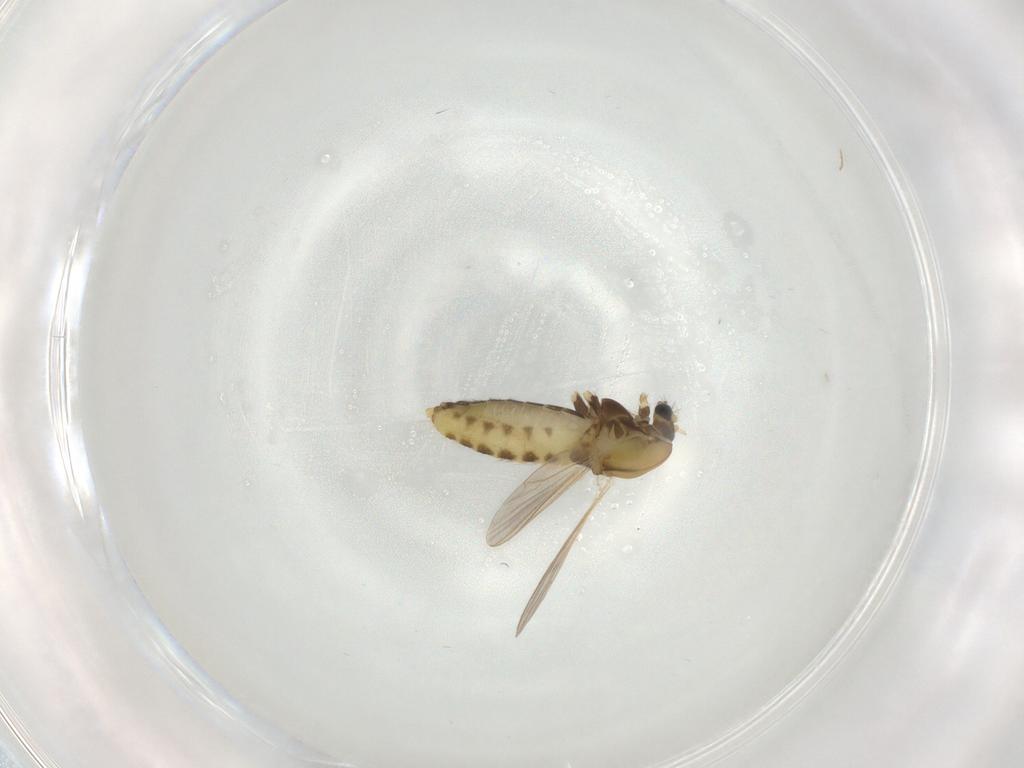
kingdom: Animalia
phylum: Arthropoda
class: Insecta
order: Diptera
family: Chironomidae
